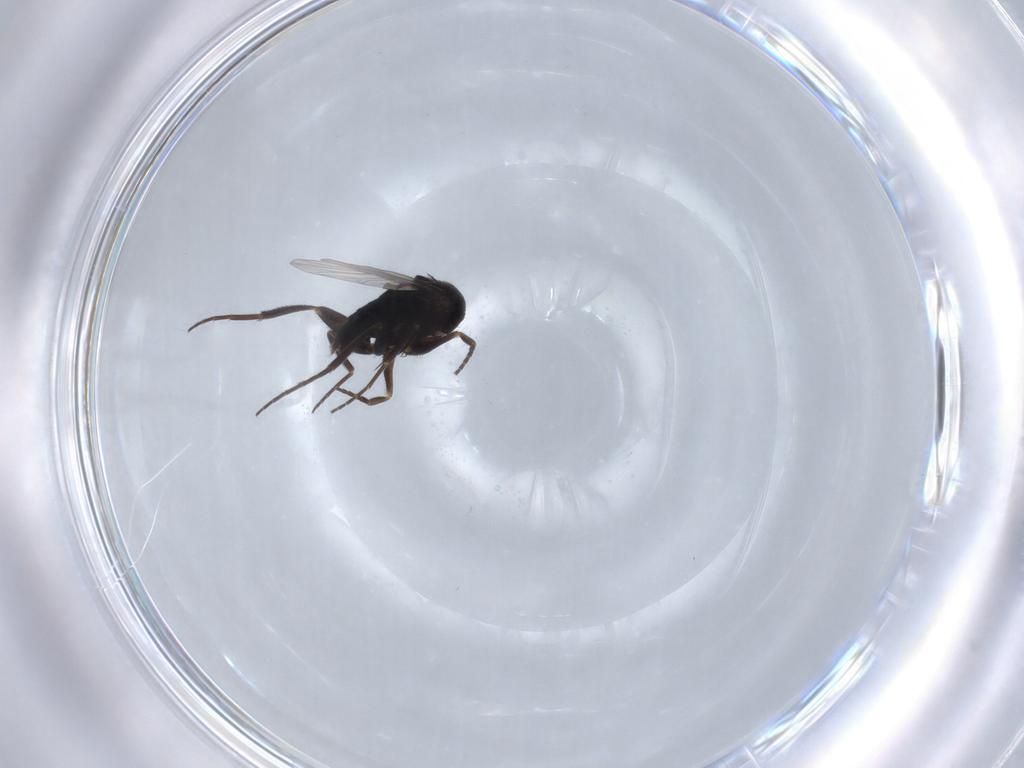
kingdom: Animalia
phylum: Arthropoda
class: Insecta
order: Diptera
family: Phoridae
